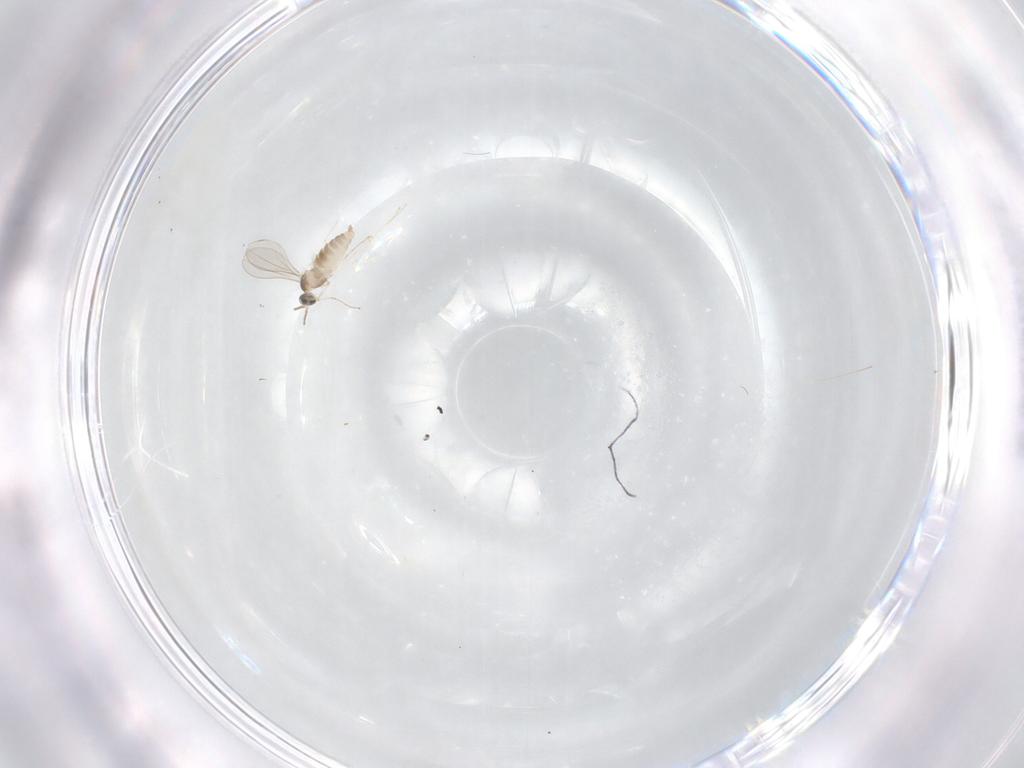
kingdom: Animalia
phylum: Arthropoda
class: Insecta
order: Diptera
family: Cecidomyiidae
